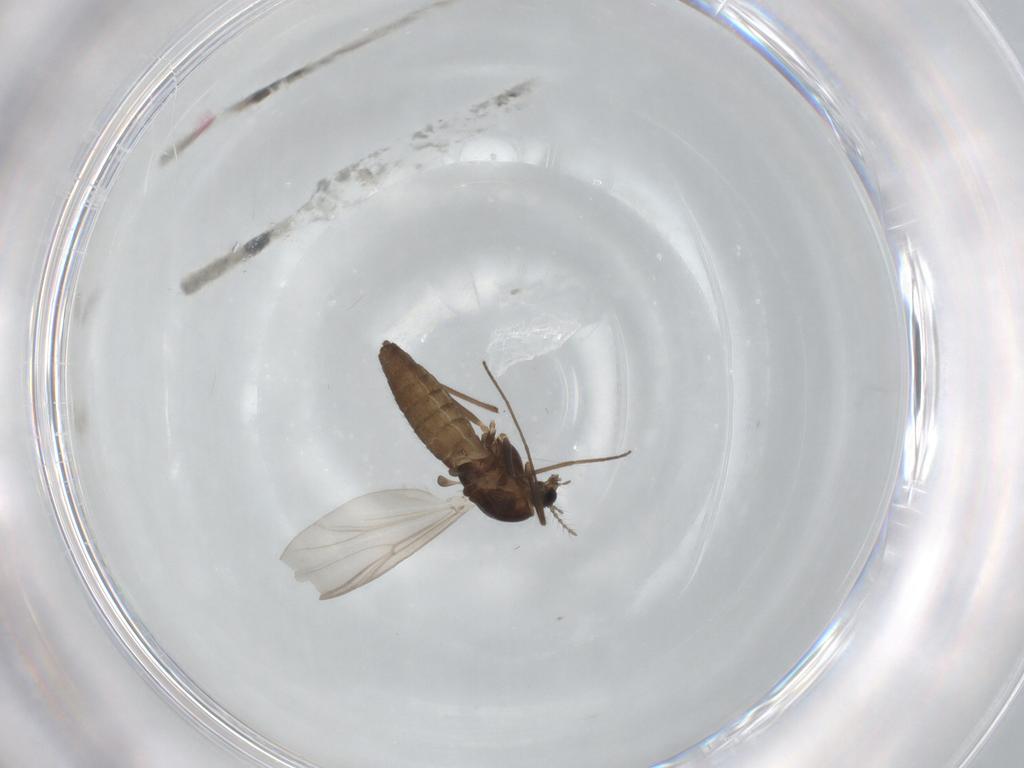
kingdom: Animalia
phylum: Arthropoda
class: Insecta
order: Diptera
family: Chironomidae
